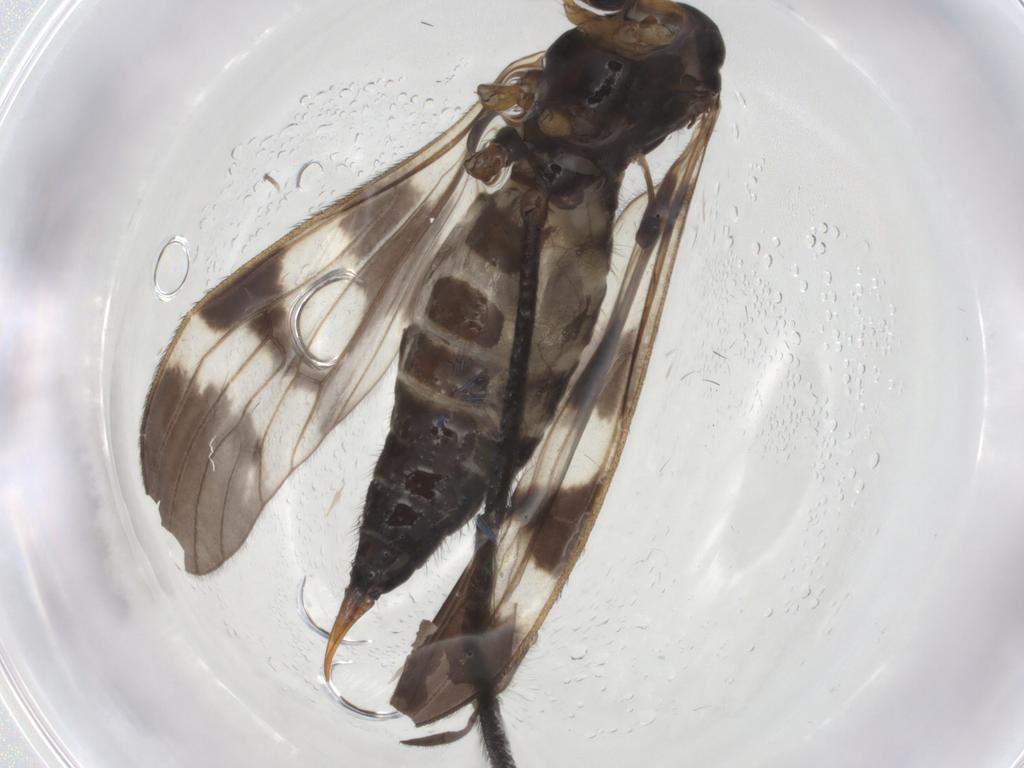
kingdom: Animalia
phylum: Arthropoda
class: Insecta
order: Diptera
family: Limoniidae
